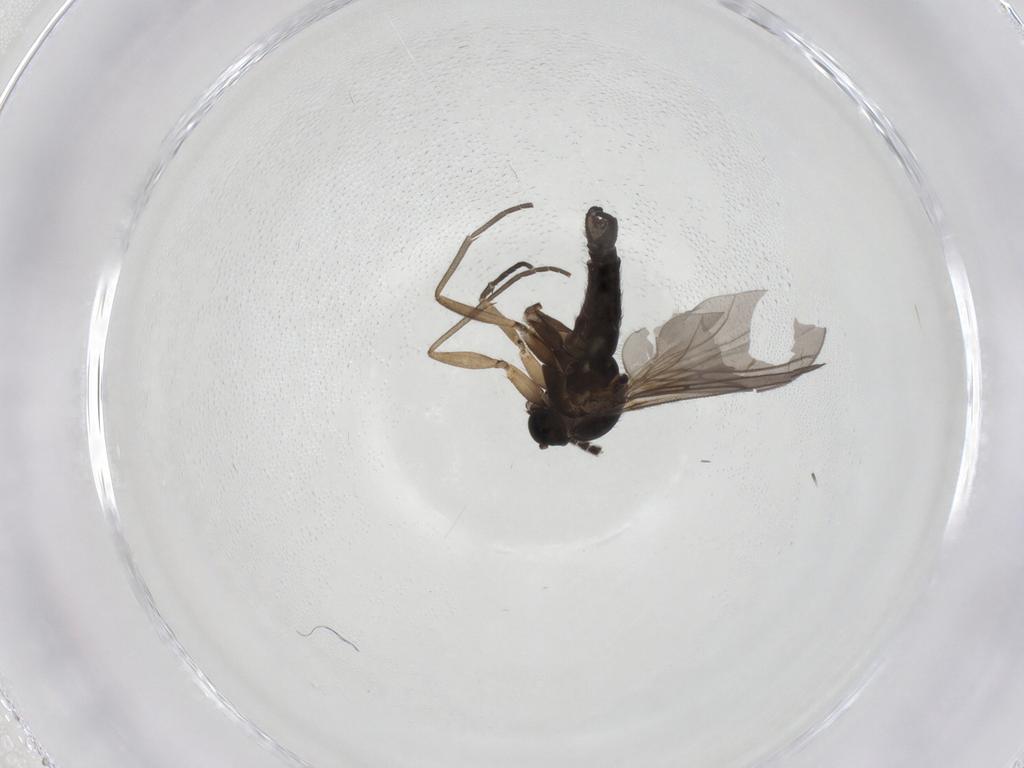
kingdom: Animalia
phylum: Arthropoda
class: Insecta
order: Diptera
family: Sciaridae
